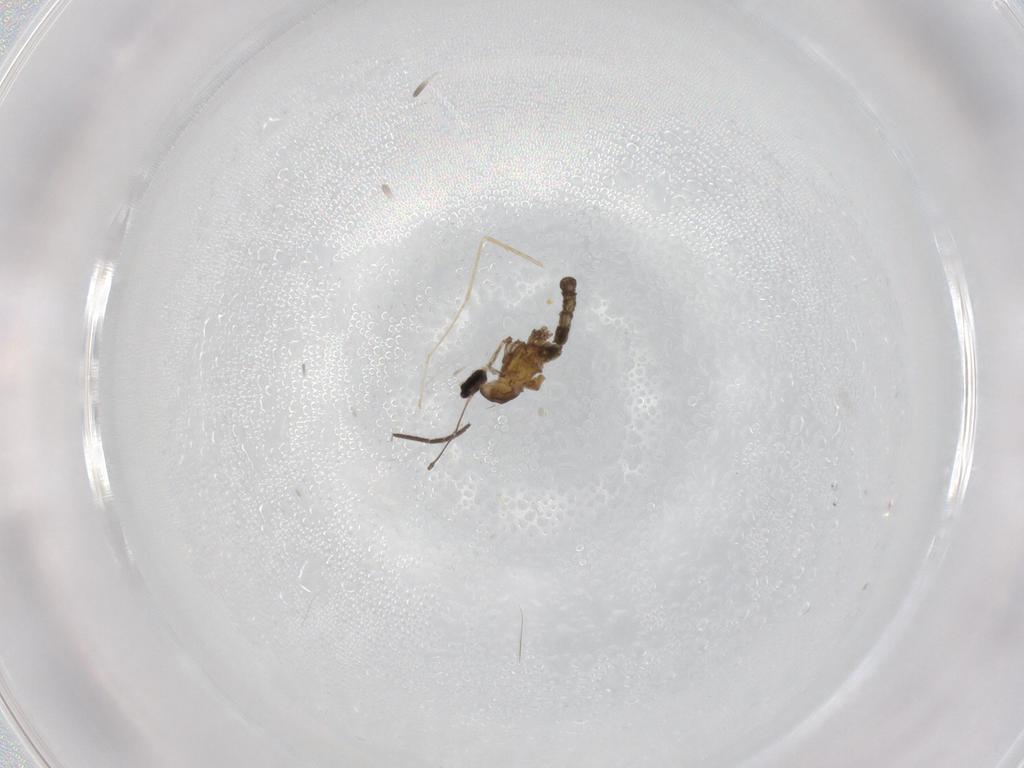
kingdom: Animalia
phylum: Arthropoda
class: Insecta
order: Diptera
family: Cecidomyiidae
